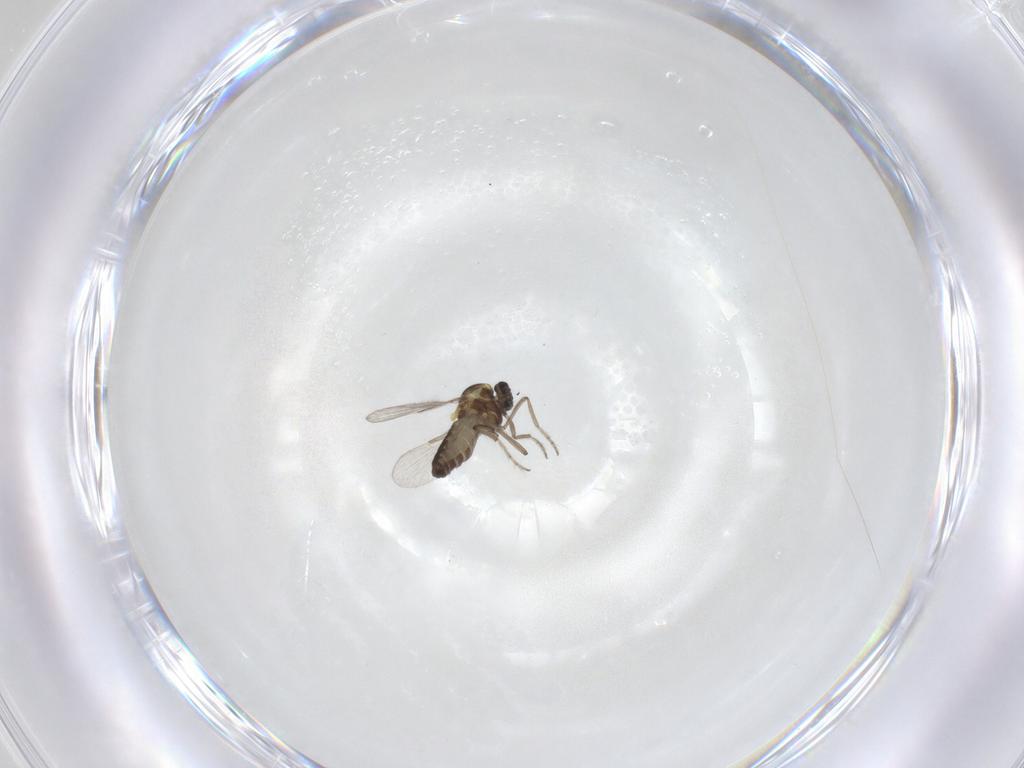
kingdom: Animalia
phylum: Arthropoda
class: Insecta
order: Diptera
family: Ceratopogonidae
